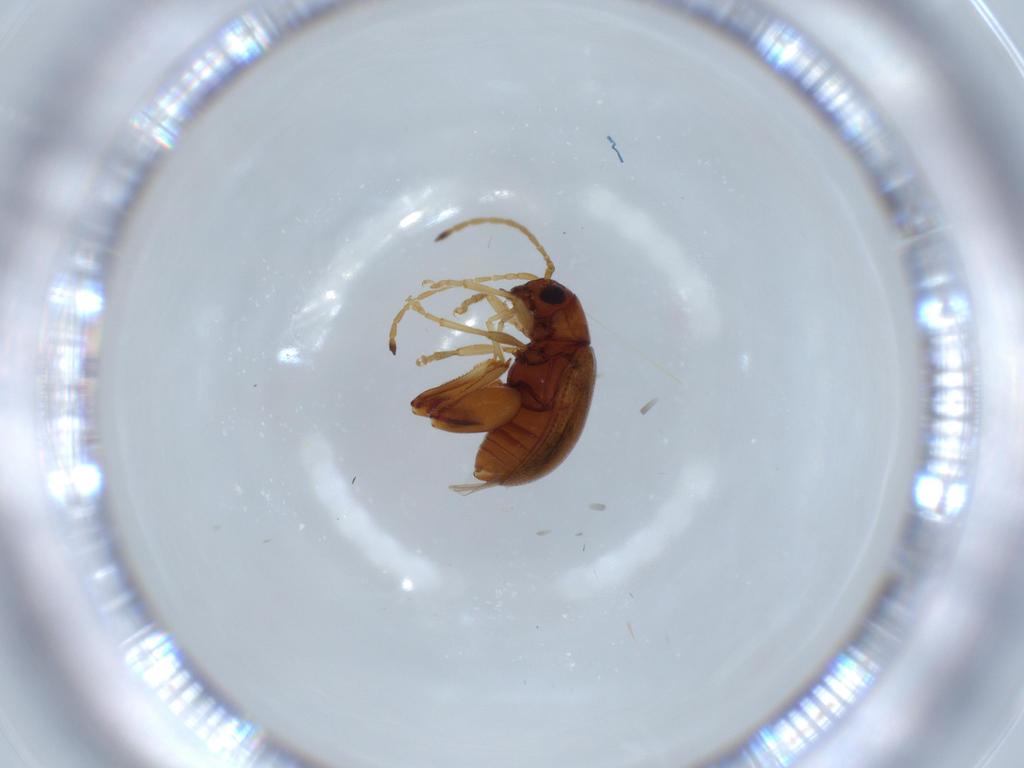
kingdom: Animalia
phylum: Arthropoda
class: Insecta
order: Coleoptera
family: Chrysomelidae
